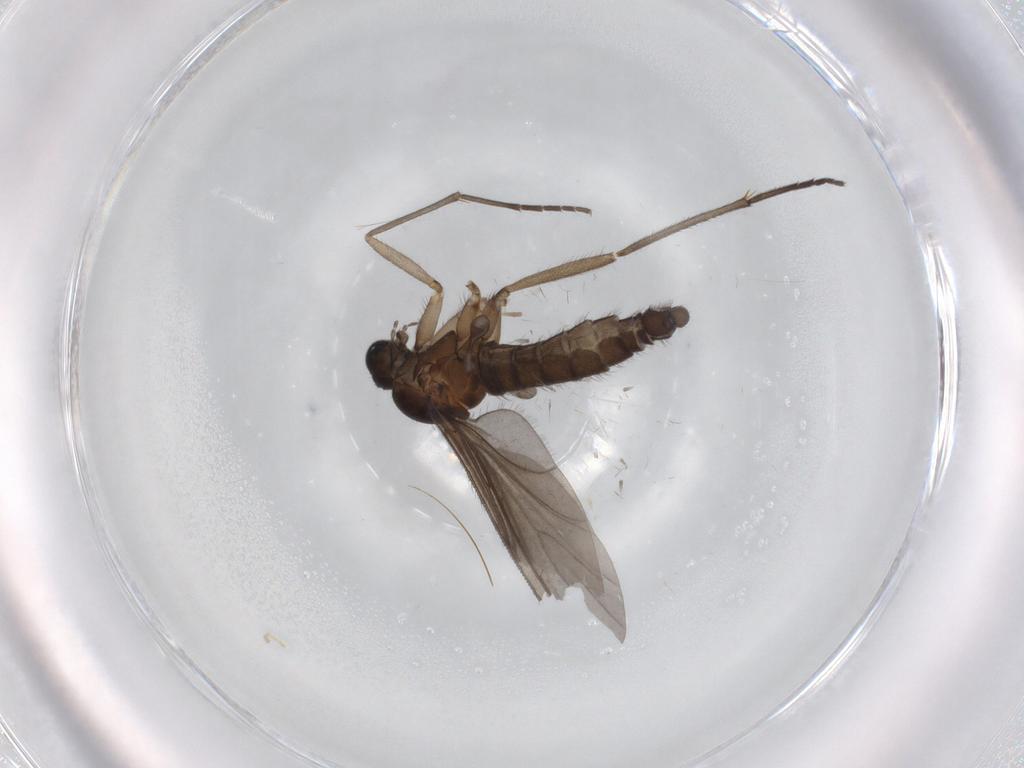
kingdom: Animalia
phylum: Arthropoda
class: Insecta
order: Diptera
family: Sciaridae
